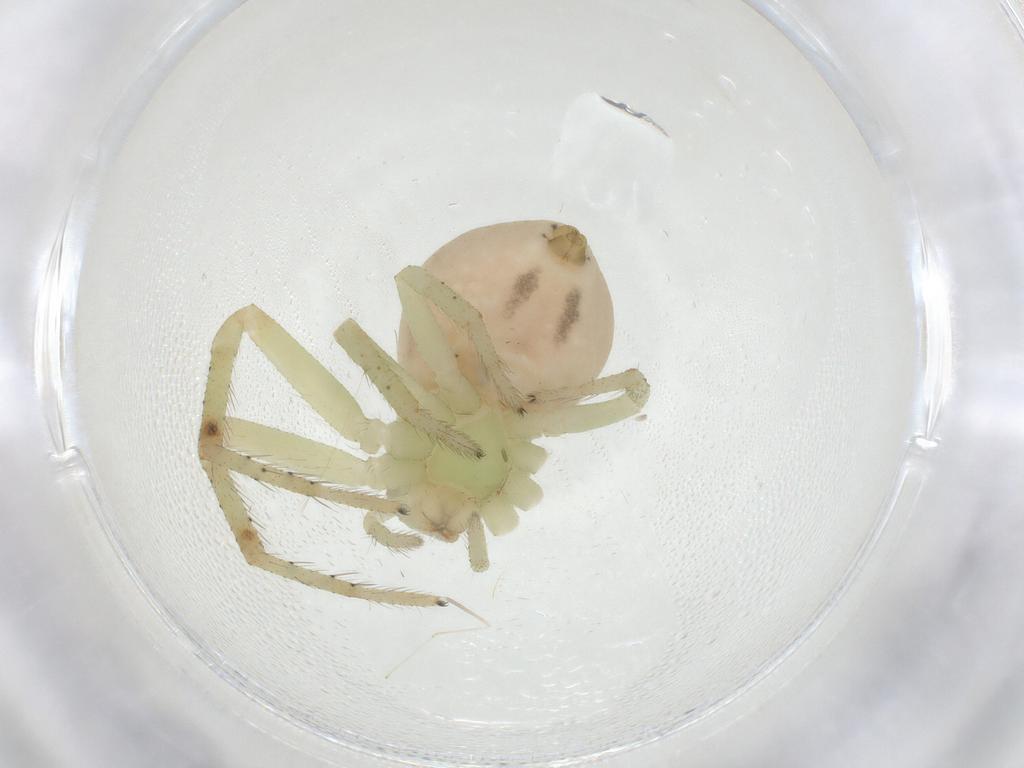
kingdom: Animalia
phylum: Arthropoda
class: Arachnida
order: Araneae
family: Thomisidae
